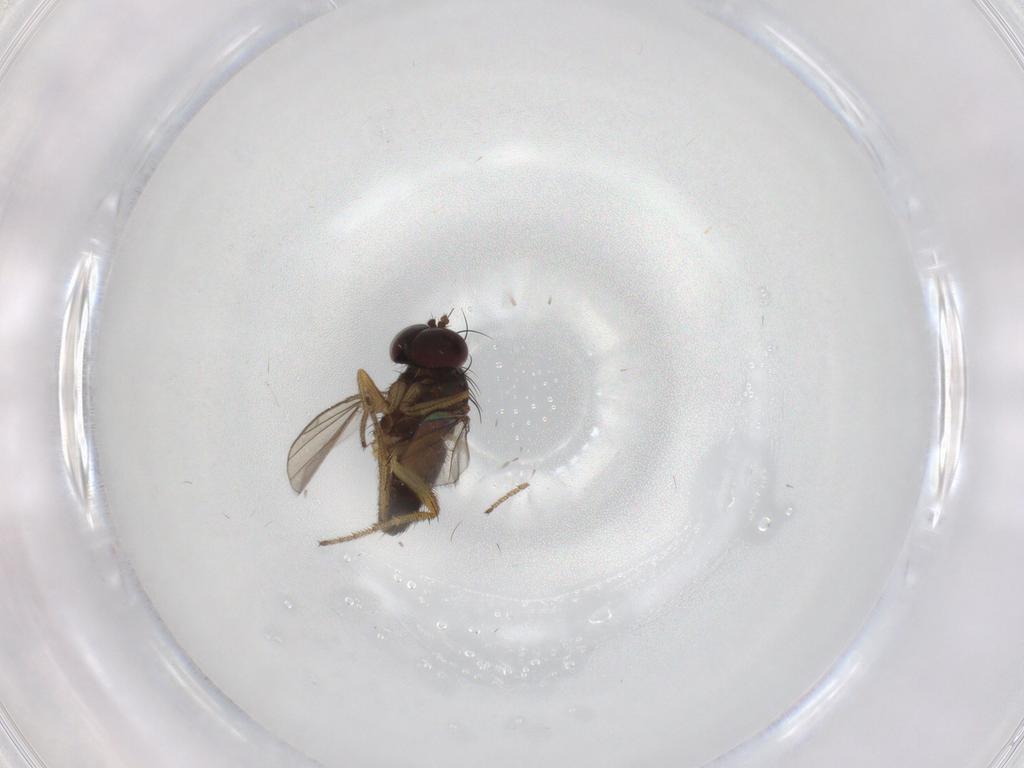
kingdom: Animalia
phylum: Arthropoda
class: Insecta
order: Diptera
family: Dolichopodidae
